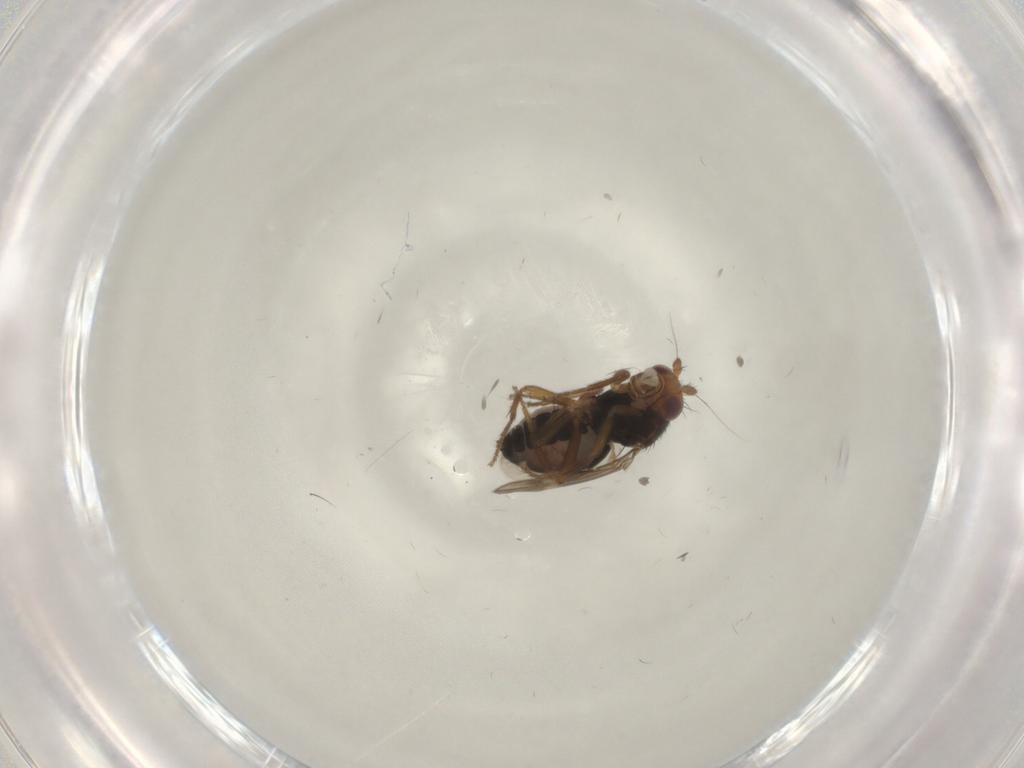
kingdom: Animalia
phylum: Arthropoda
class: Insecta
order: Diptera
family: Sphaeroceridae
